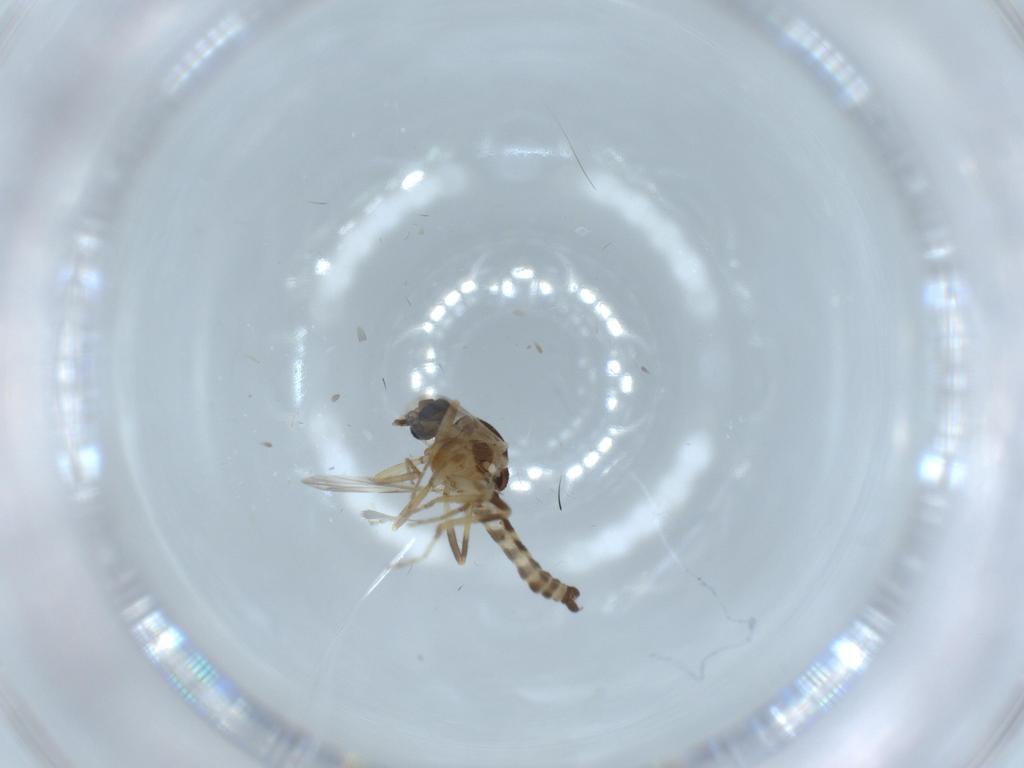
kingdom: Animalia
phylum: Arthropoda
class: Insecta
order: Diptera
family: Ceratopogonidae
